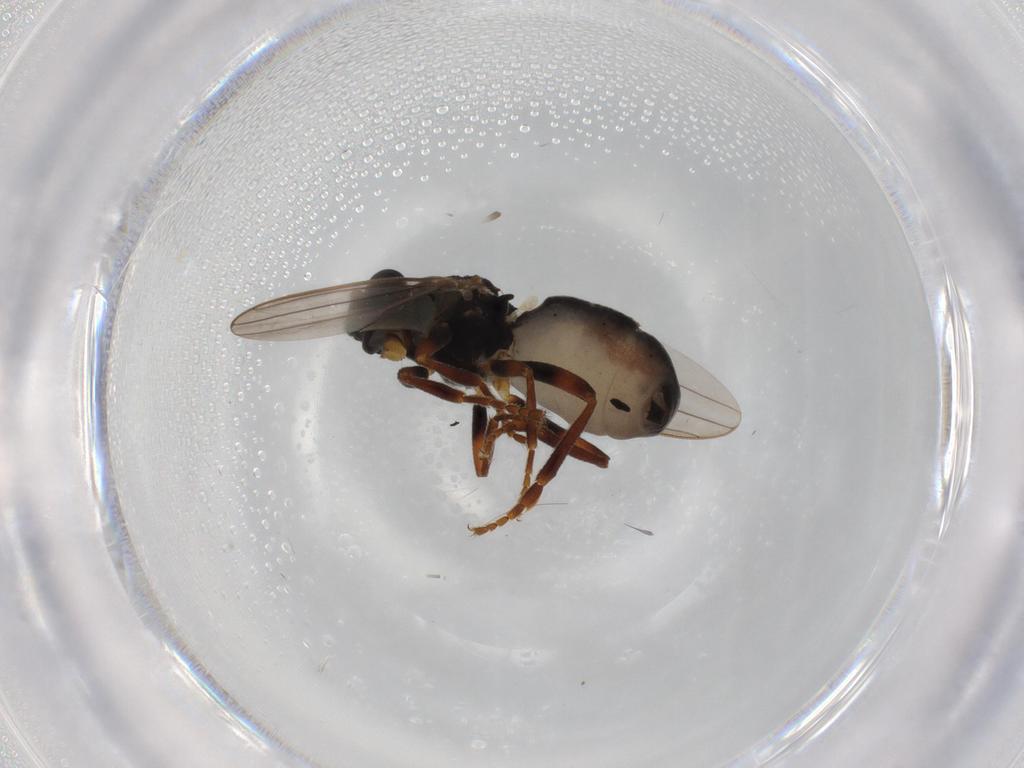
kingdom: Animalia
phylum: Arthropoda
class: Insecta
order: Diptera
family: Sphaeroceridae
